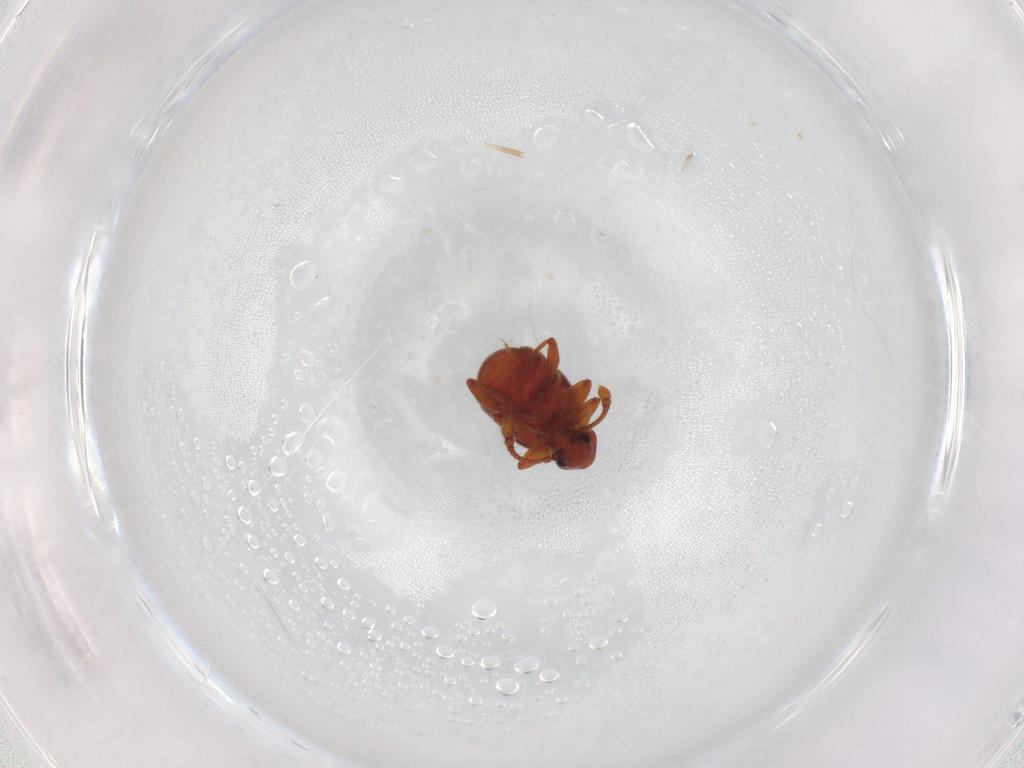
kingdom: Animalia
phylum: Arthropoda
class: Insecta
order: Coleoptera
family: Staphylinidae
